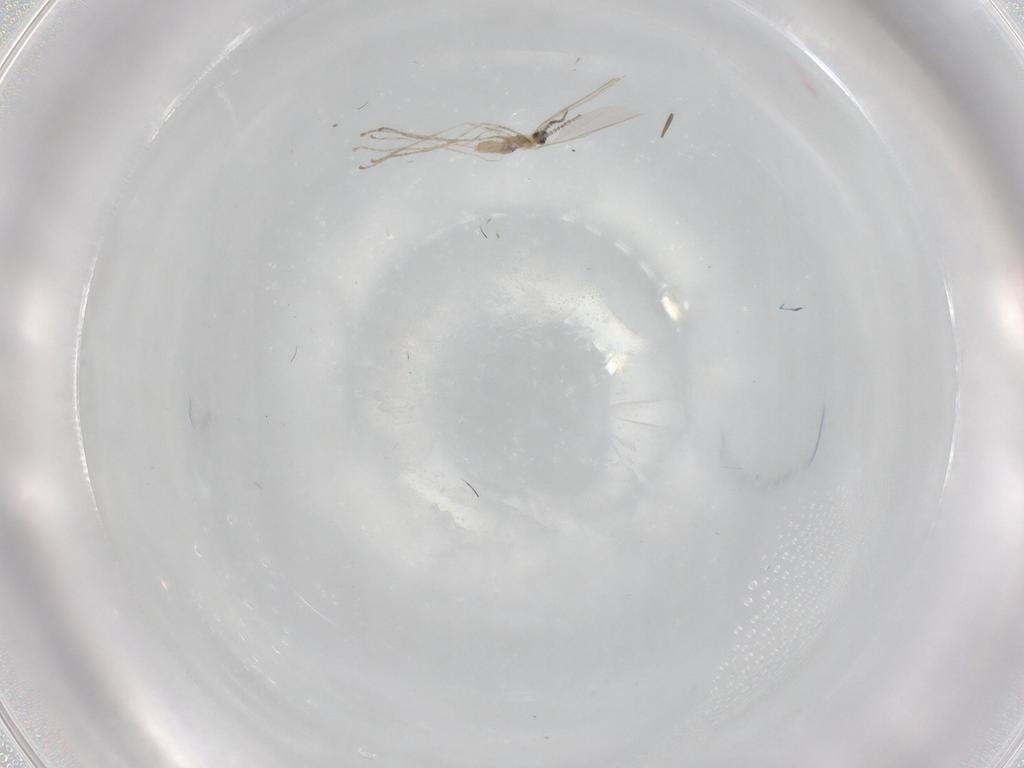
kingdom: Animalia
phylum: Arthropoda
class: Insecta
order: Diptera
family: Cecidomyiidae
